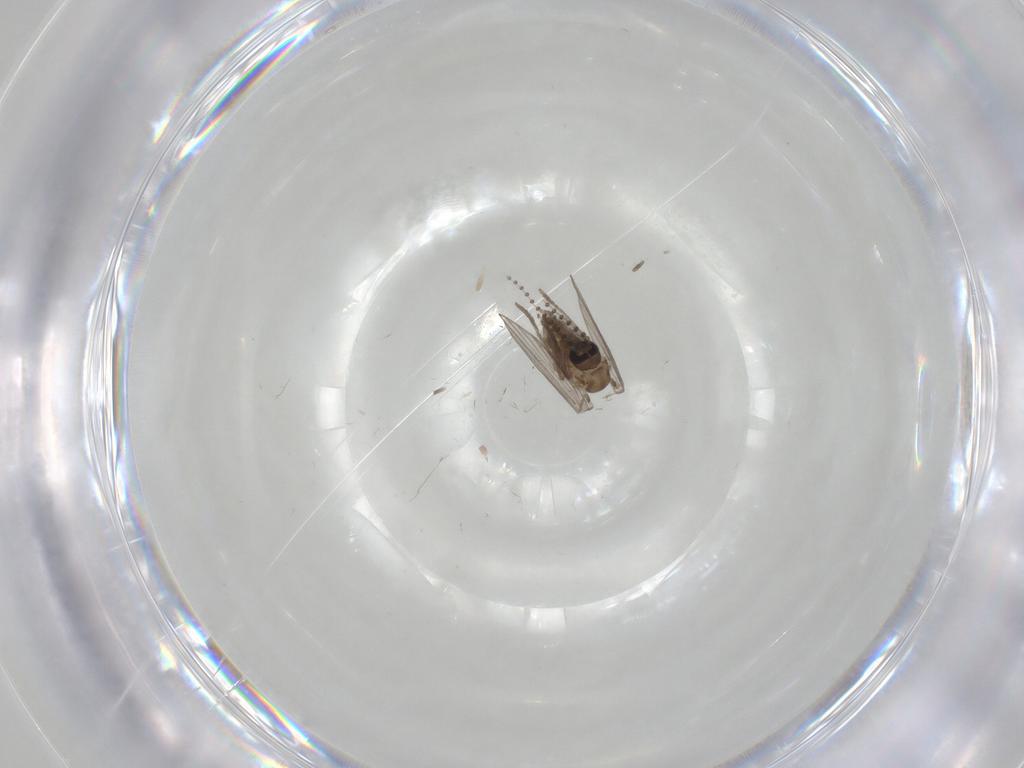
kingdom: Animalia
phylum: Arthropoda
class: Insecta
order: Diptera
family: Psychodidae
